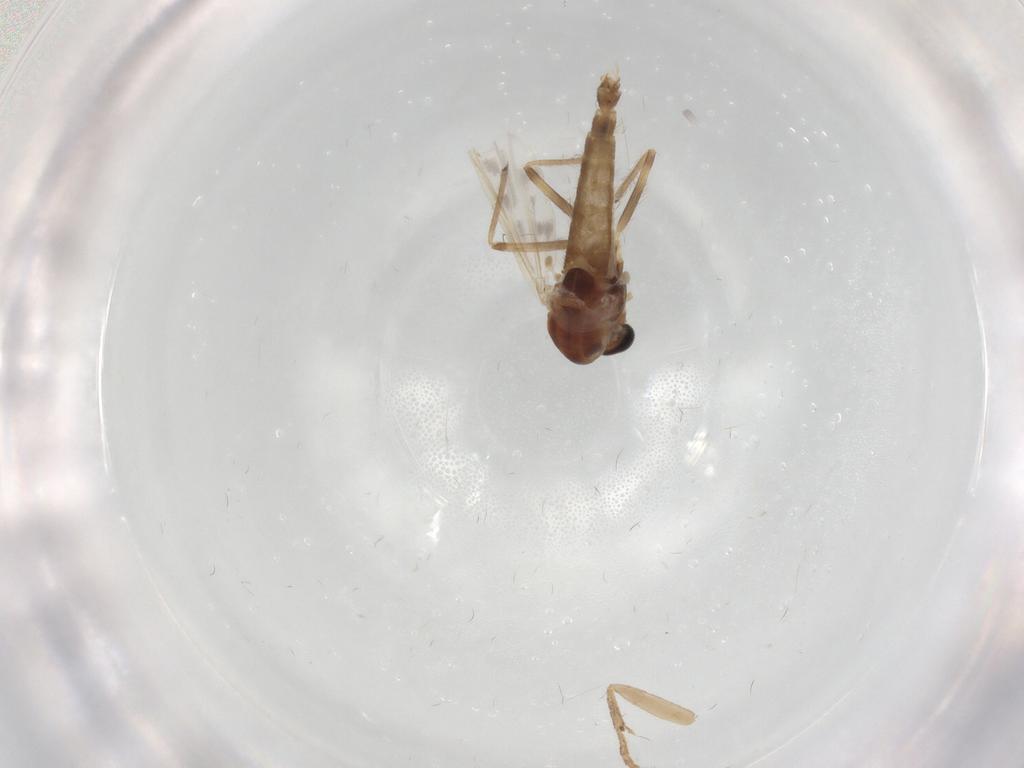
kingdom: Animalia
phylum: Arthropoda
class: Insecta
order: Diptera
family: Chironomidae
